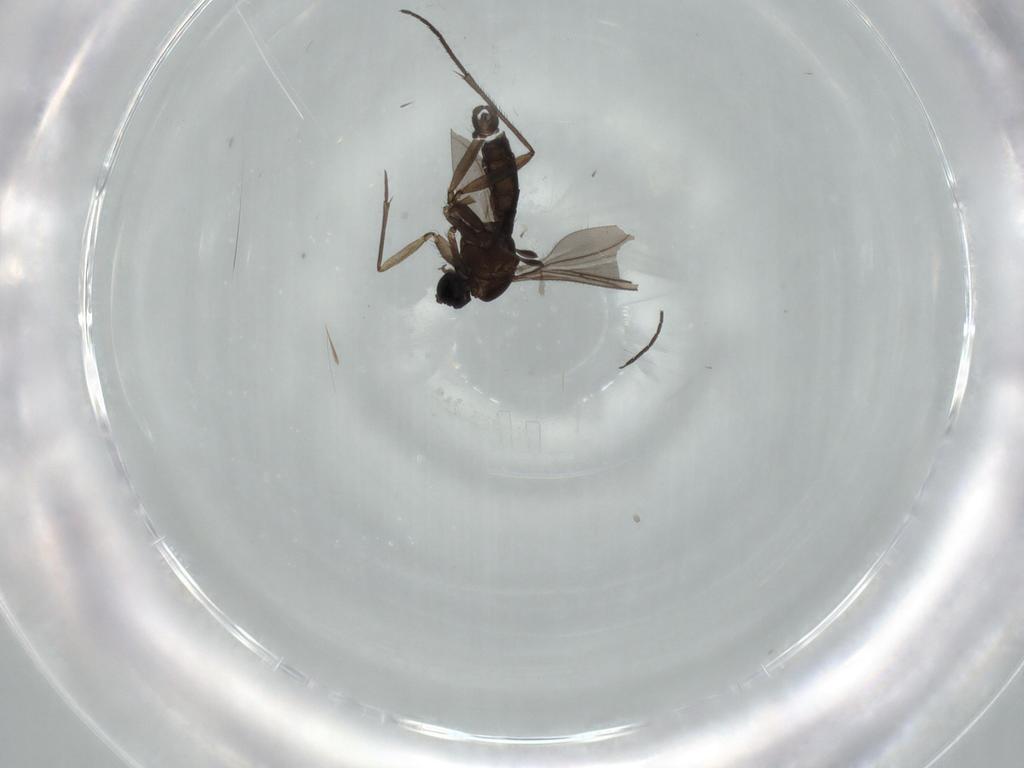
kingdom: Animalia
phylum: Arthropoda
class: Insecta
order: Diptera
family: Sciaridae
